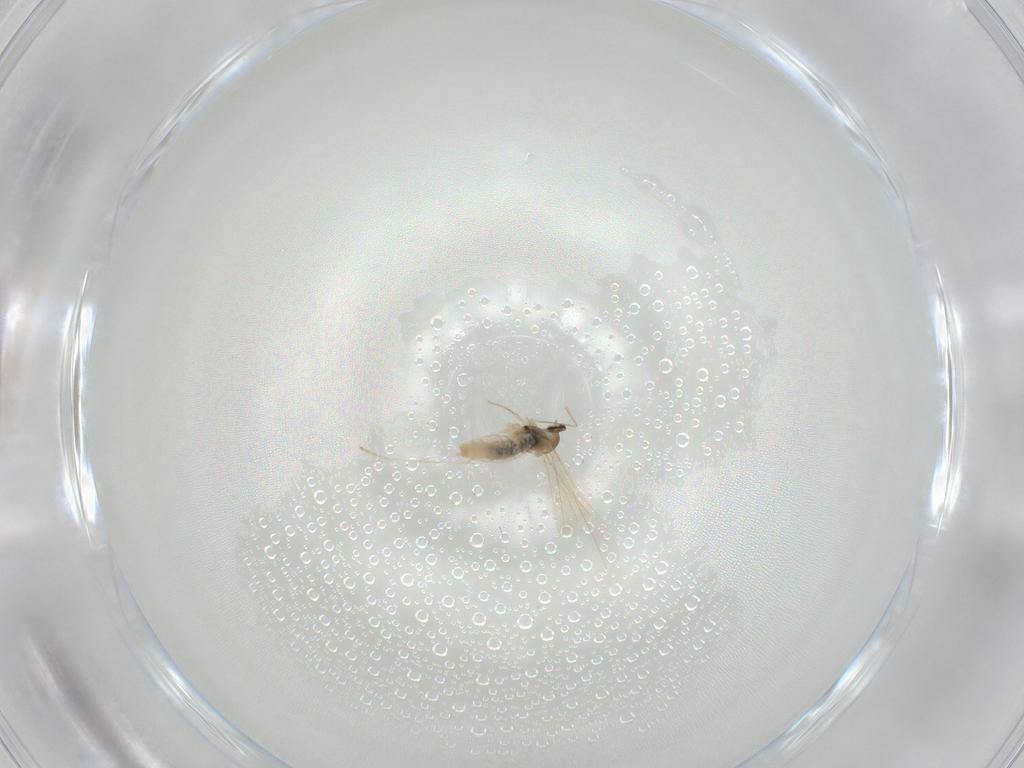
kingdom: Animalia
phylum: Arthropoda
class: Insecta
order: Diptera
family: Cecidomyiidae
